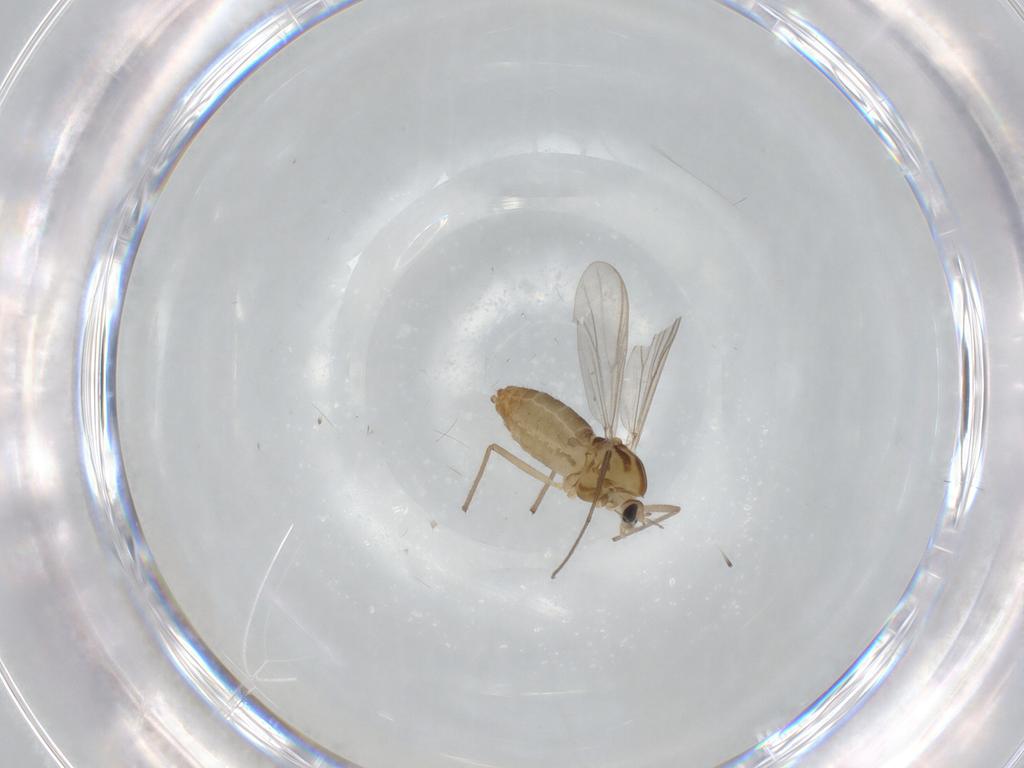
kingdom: Animalia
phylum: Arthropoda
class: Insecta
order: Diptera
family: Chironomidae
